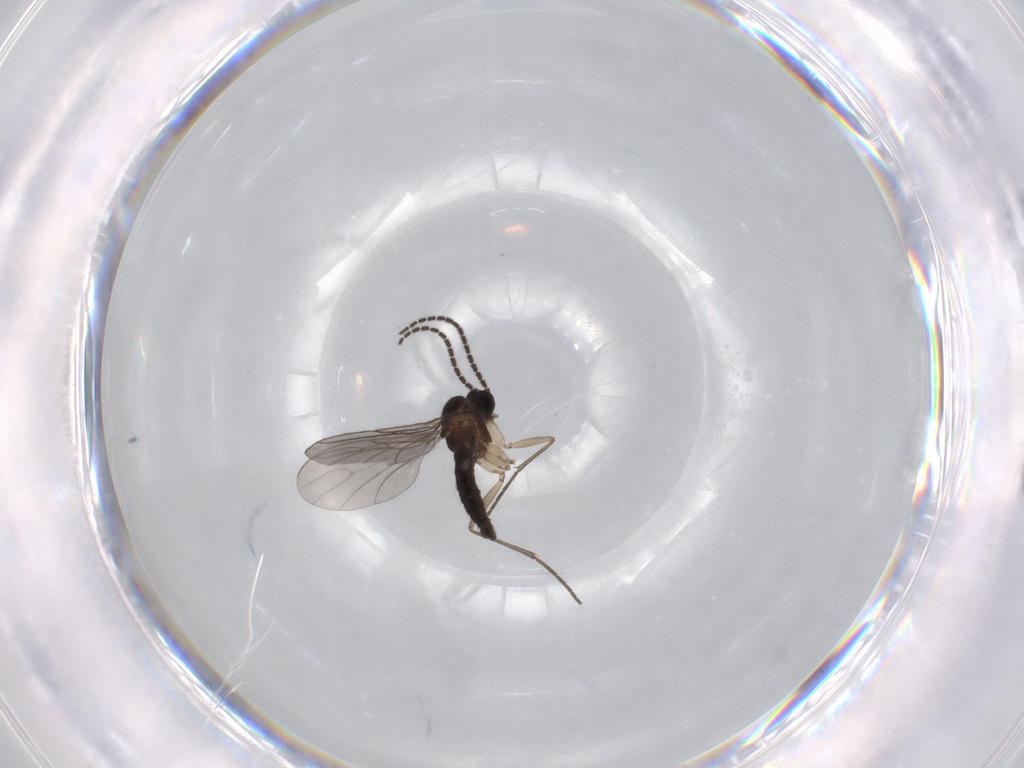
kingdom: Animalia
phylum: Arthropoda
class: Insecta
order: Diptera
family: Sciaridae
